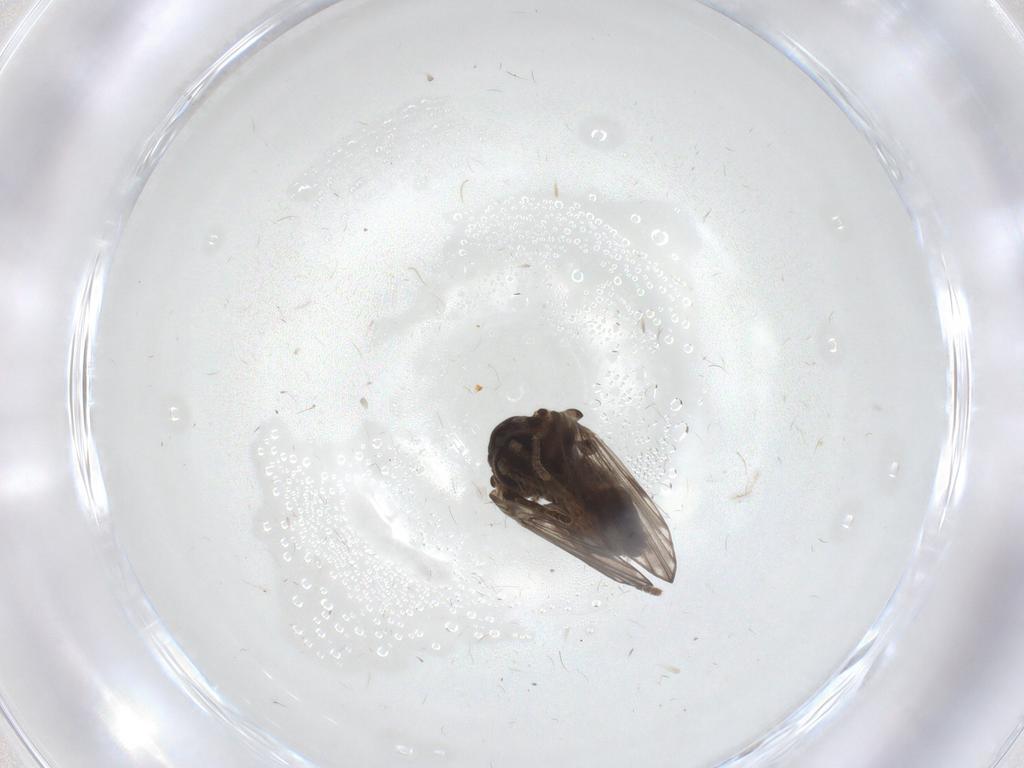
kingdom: Animalia
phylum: Arthropoda
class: Insecta
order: Diptera
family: Psychodidae
